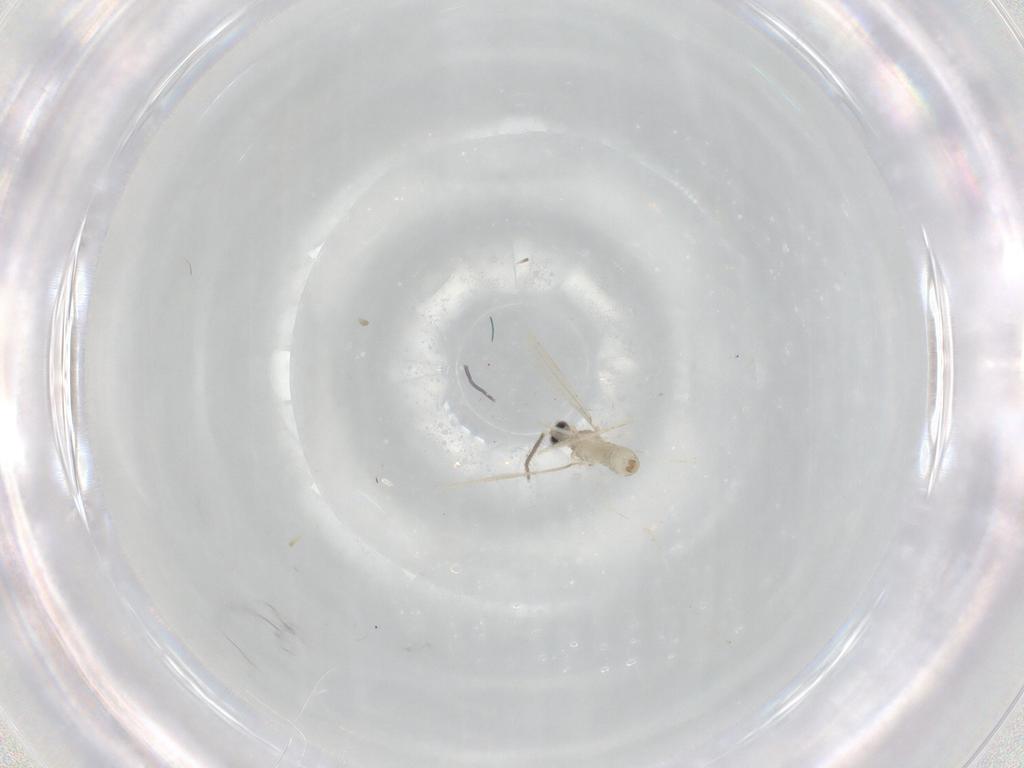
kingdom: Animalia
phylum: Arthropoda
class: Insecta
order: Diptera
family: Cecidomyiidae
